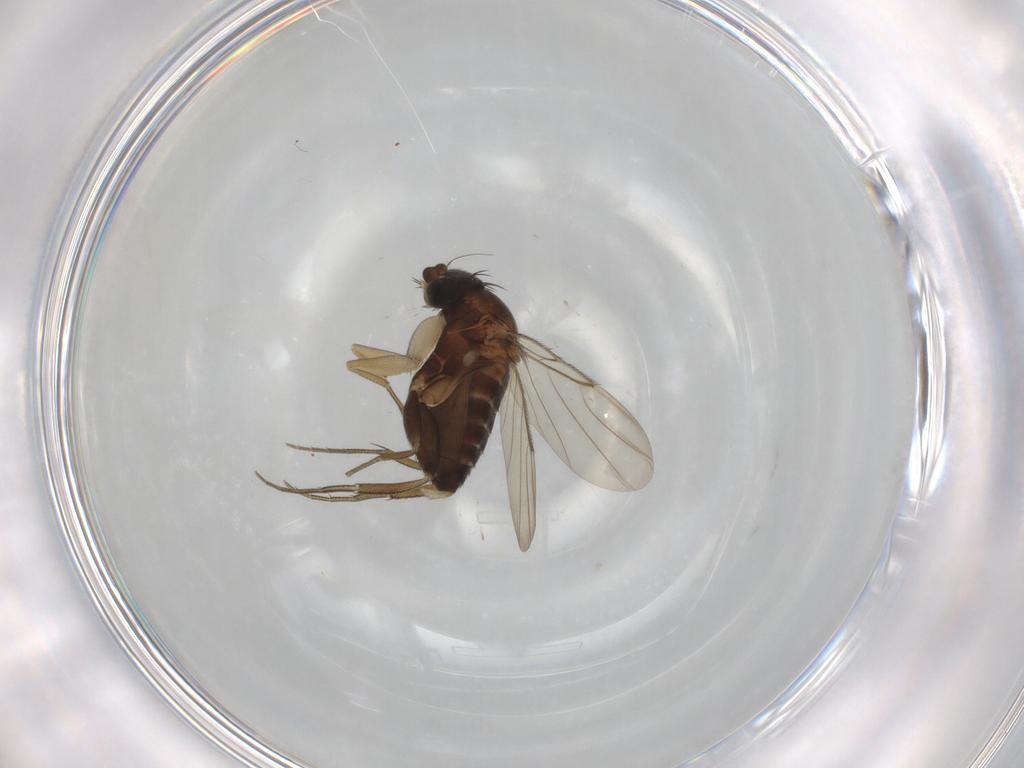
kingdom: Animalia
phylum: Arthropoda
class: Insecta
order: Diptera
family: Phoridae
